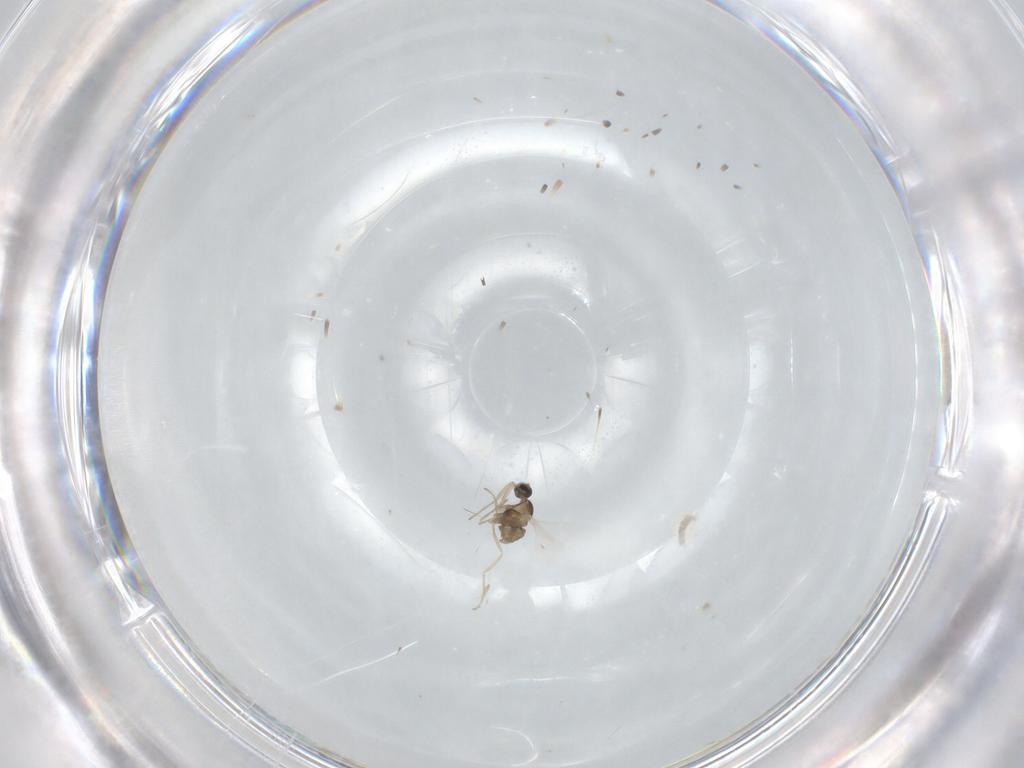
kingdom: Animalia
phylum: Arthropoda
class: Insecta
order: Diptera
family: Cecidomyiidae
